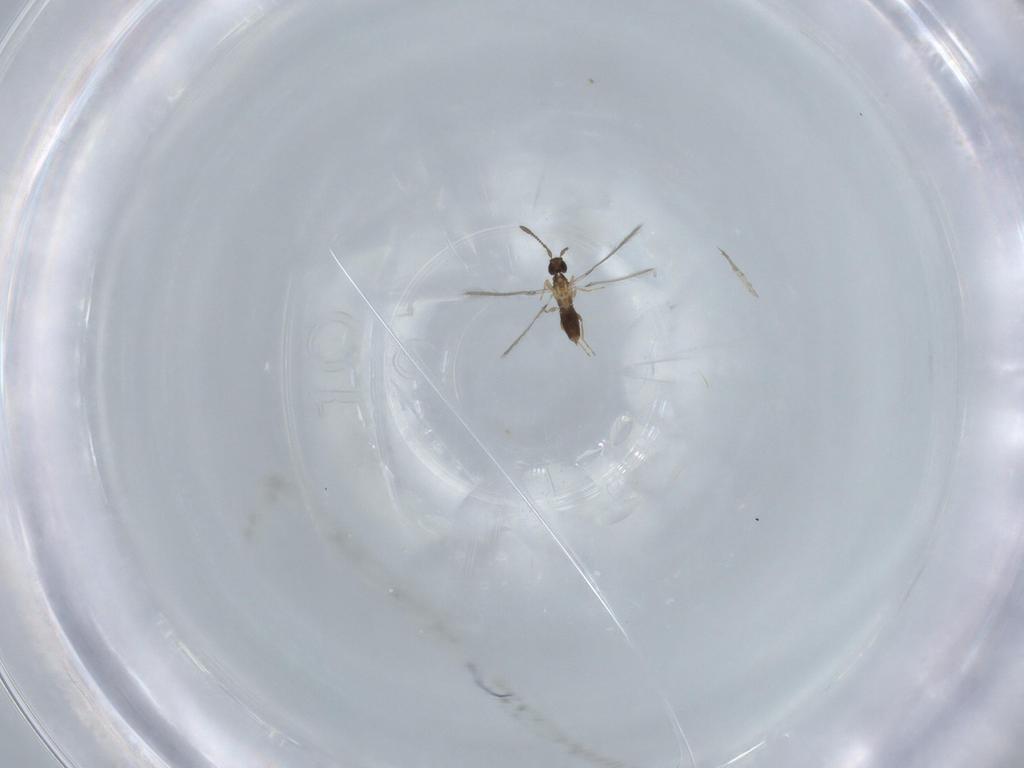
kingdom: Animalia
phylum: Arthropoda
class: Insecta
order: Hymenoptera
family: Mymaridae
